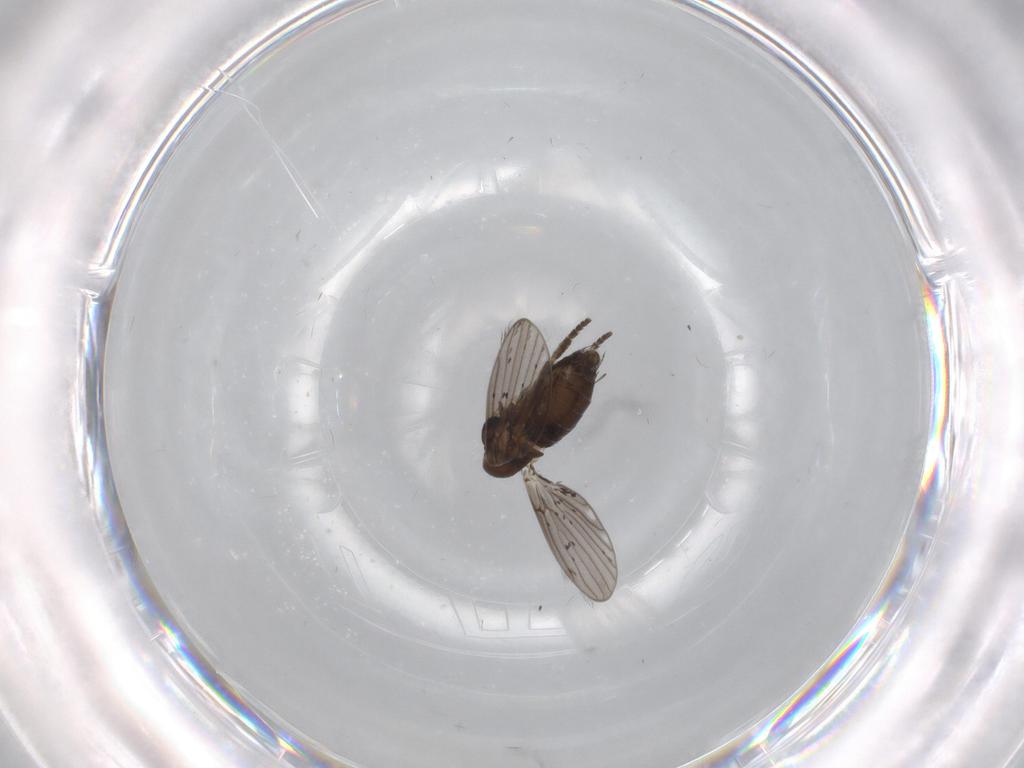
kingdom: Animalia
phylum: Arthropoda
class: Insecta
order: Diptera
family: Psychodidae
